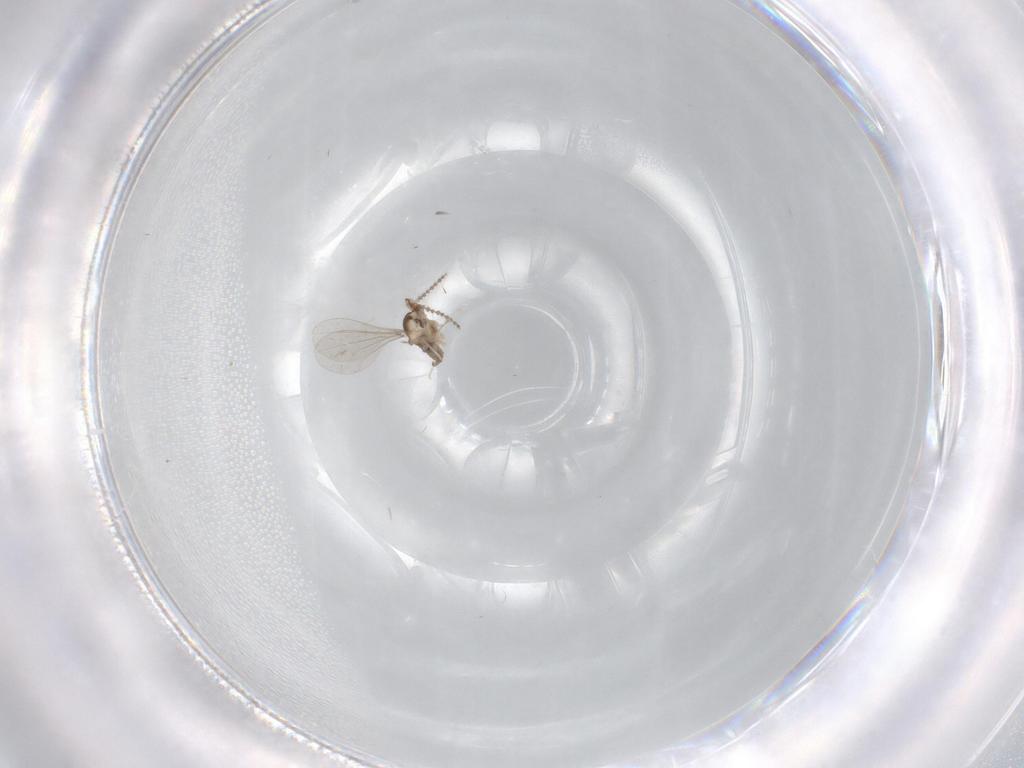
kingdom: Animalia
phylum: Arthropoda
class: Insecta
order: Diptera
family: Cecidomyiidae
